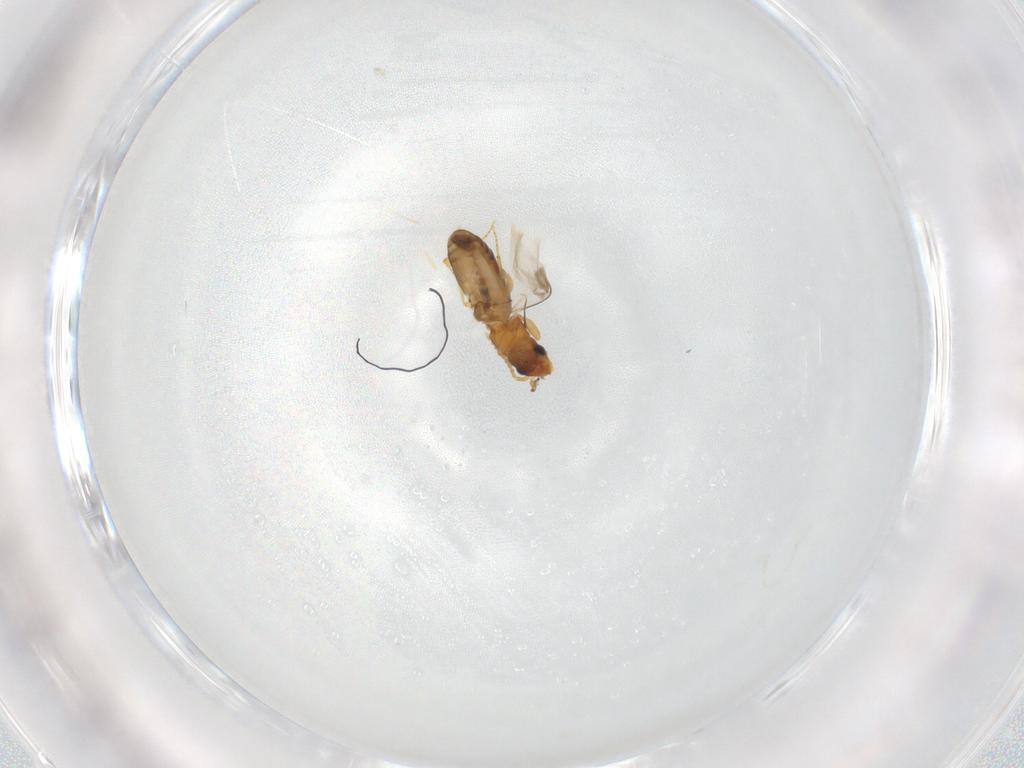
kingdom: Animalia
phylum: Arthropoda
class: Insecta
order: Coleoptera
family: Carabidae
